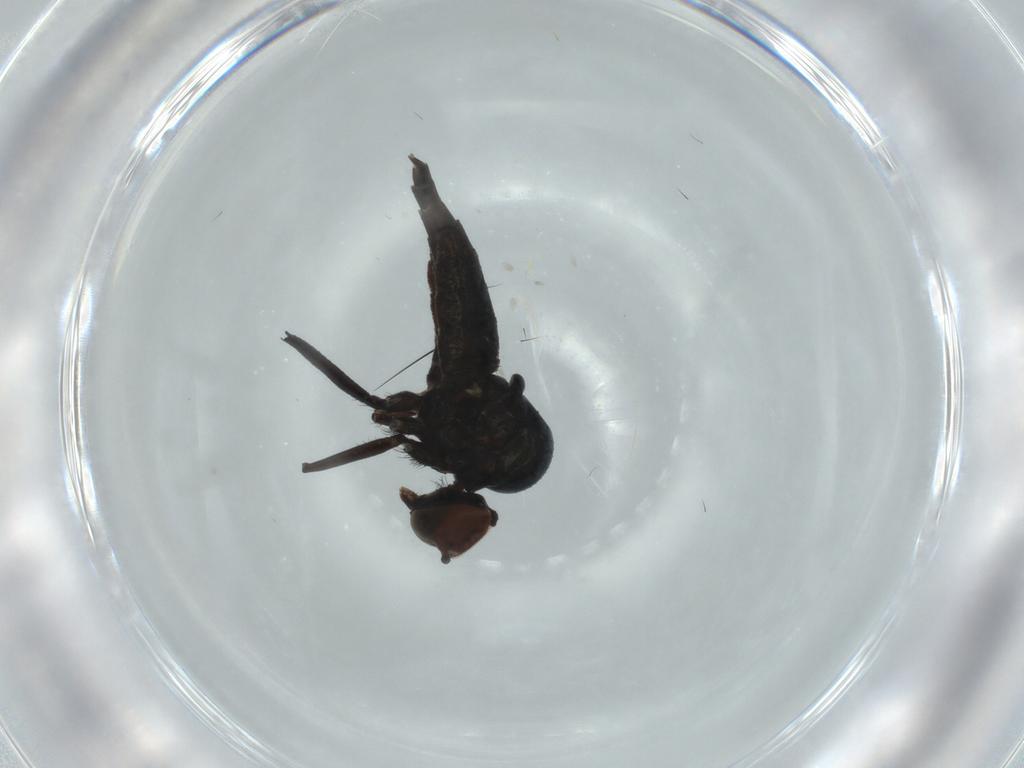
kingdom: Animalia
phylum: Arthropoda
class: Insecta
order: Diptera
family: Hybotidae
